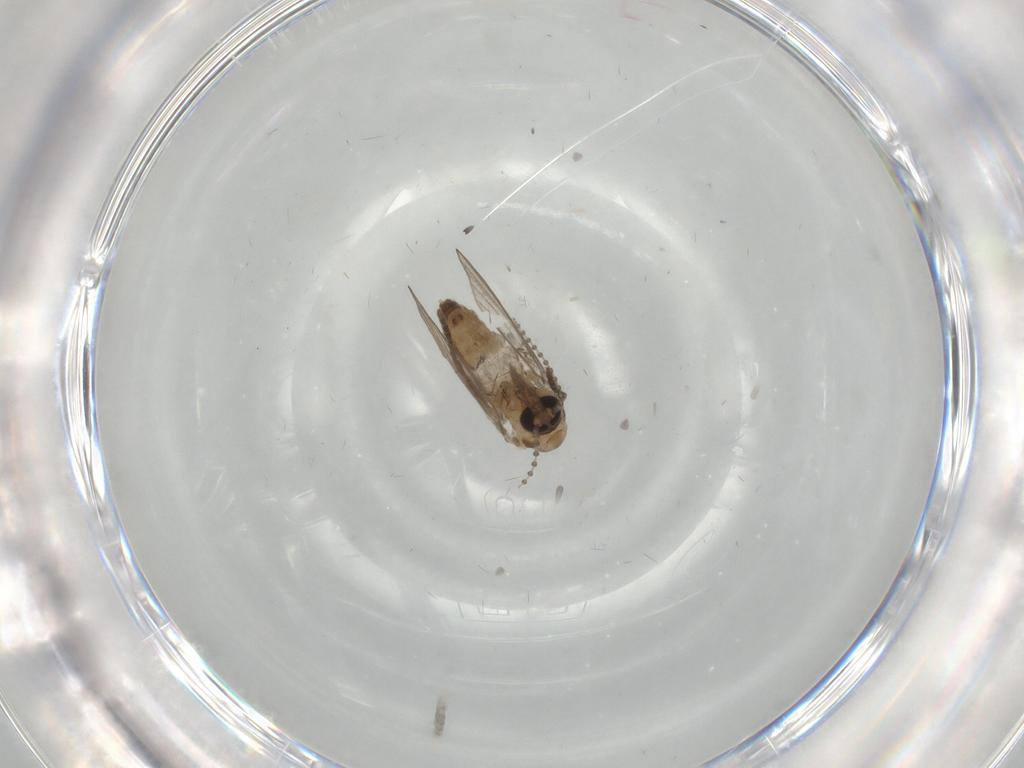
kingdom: Animalia
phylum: Arthropoda
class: Insecta
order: Diptera
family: Psychodidae
